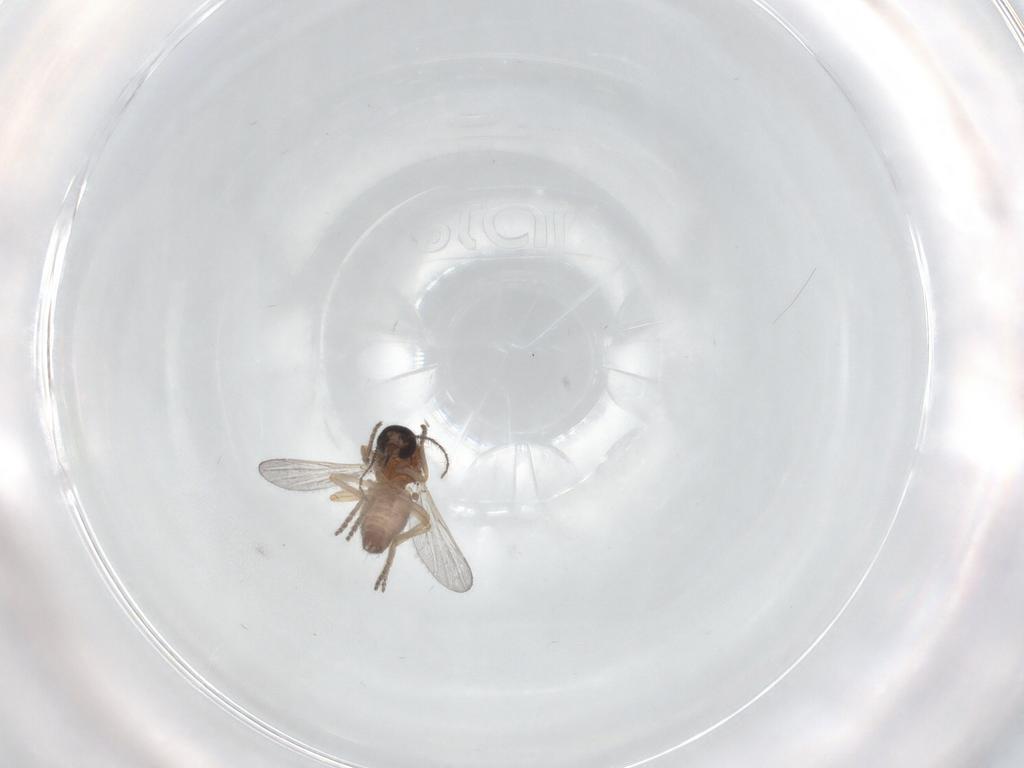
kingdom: Animalia
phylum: Arthropoda
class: Insecta
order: Diptera
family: Ceratopogonidae
